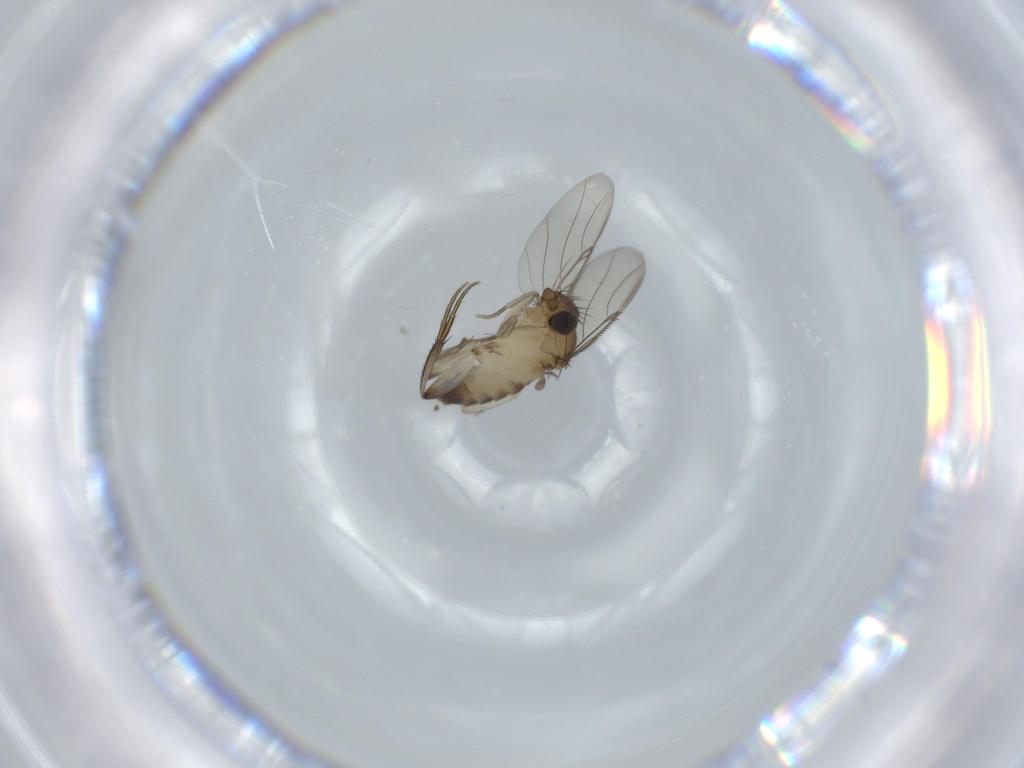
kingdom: Animalia
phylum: Arthropoda
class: Insecta
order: Diptera
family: Phoridae
